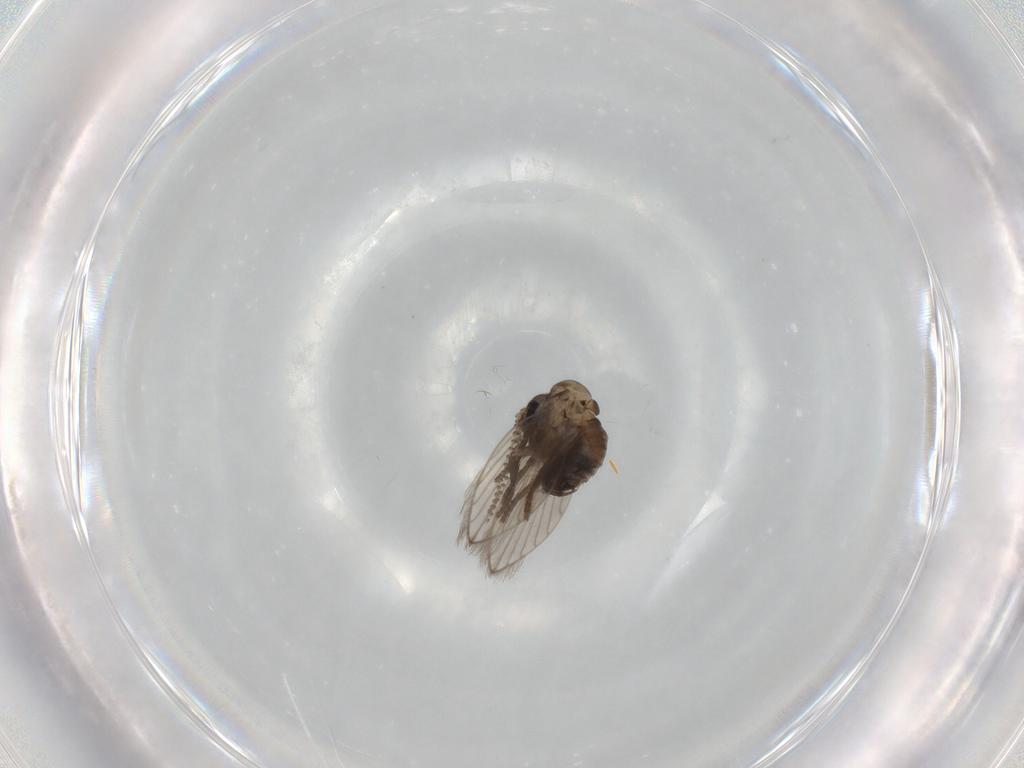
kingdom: Animalia
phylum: Arthropoda
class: Insecta
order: Diptera
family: Psychodidae
